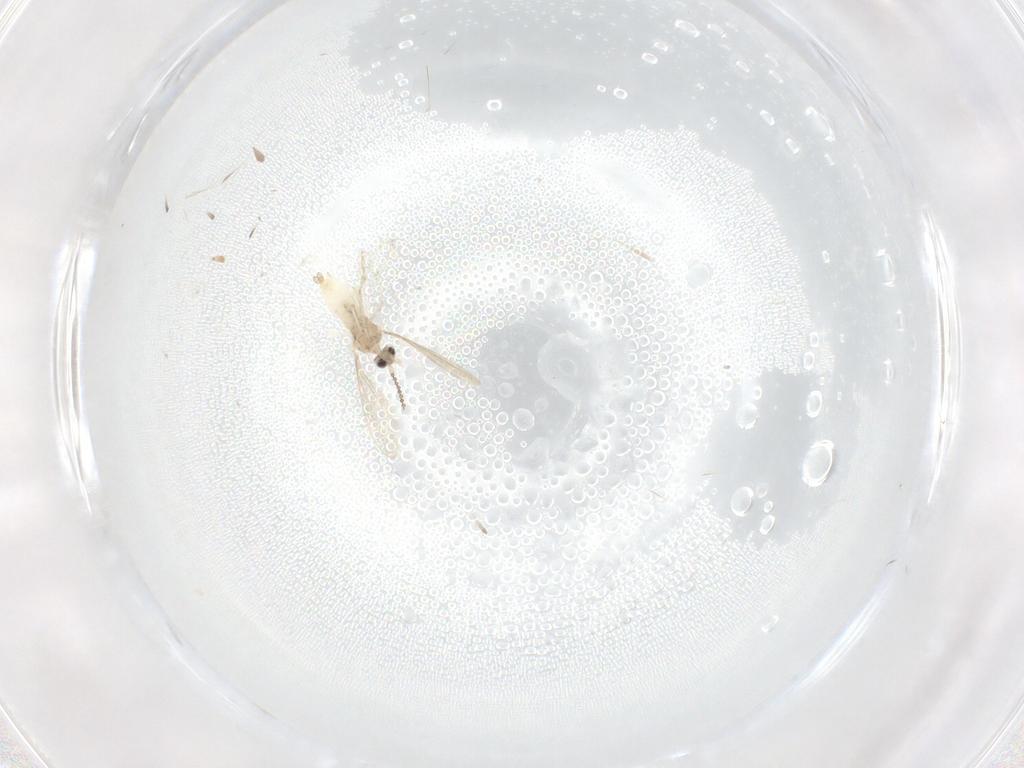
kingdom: Animalia
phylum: Arthropoda
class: Insecta
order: Diptera
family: Cecidomyiidae
